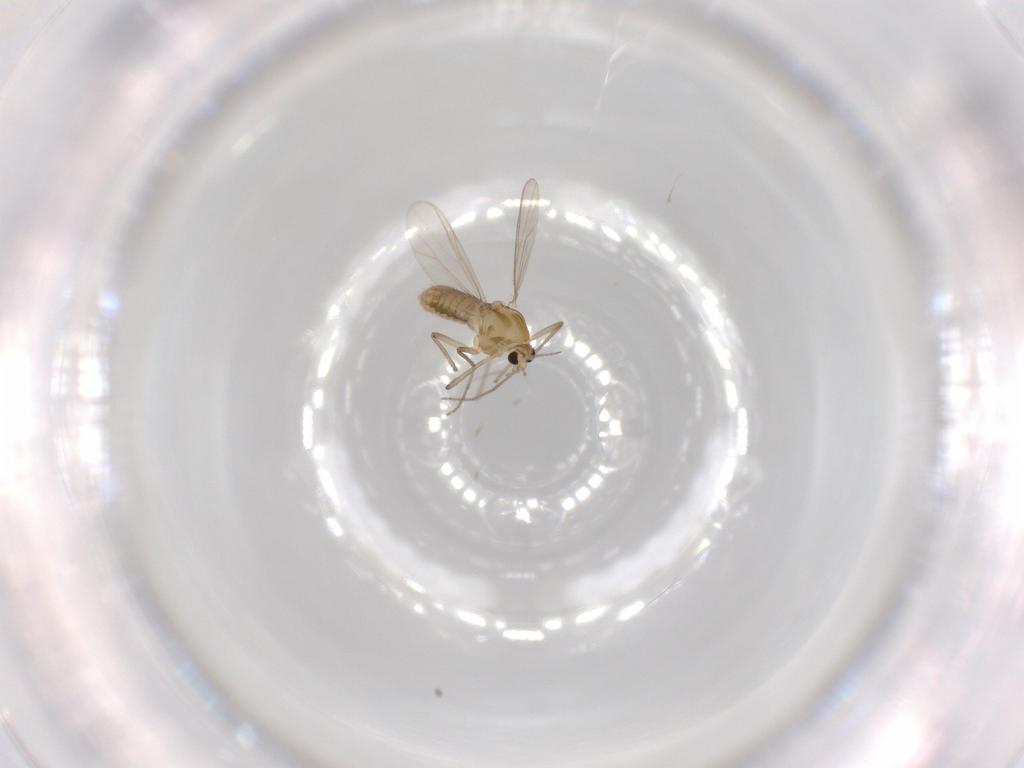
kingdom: Animalia
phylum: Arthropoda
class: Insecta
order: Diptera
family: Chironomidae
